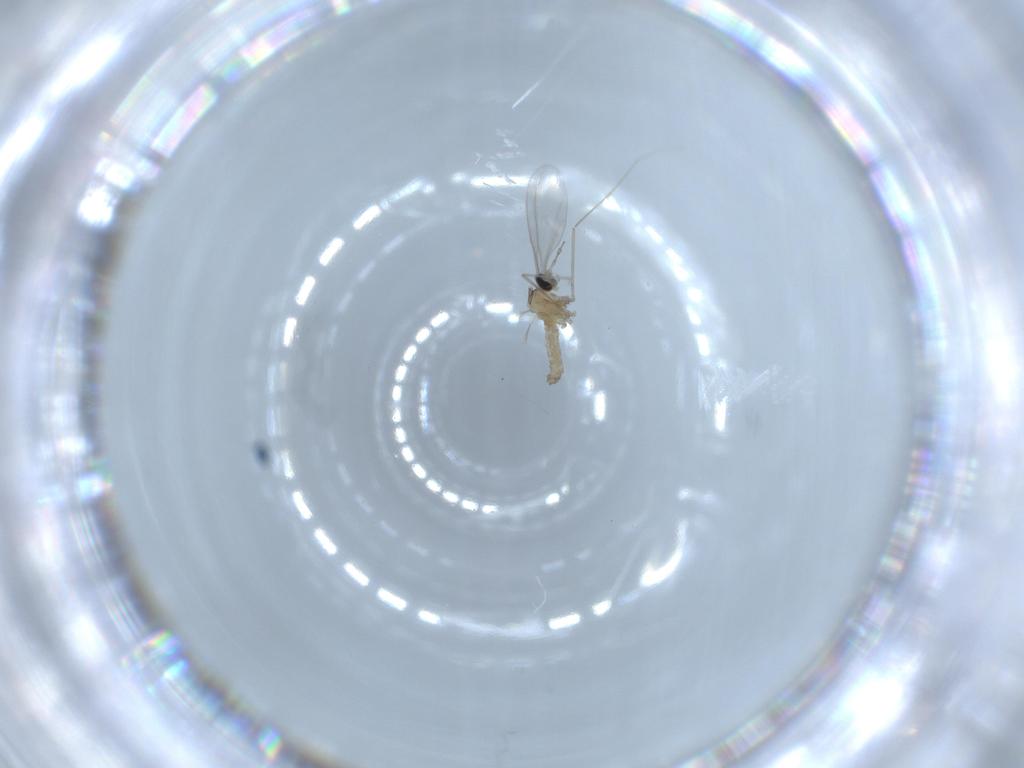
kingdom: Animalia
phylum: Arthropoda
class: Insecta
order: Diptera
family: Cecidomyiidae
